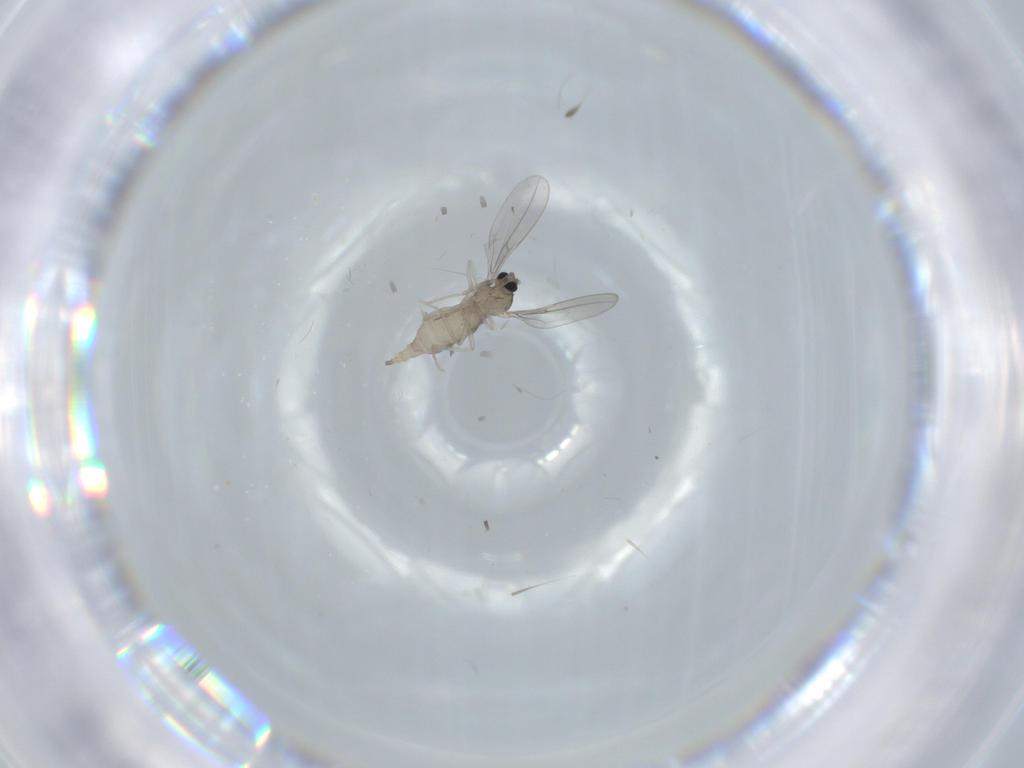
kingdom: Animalia
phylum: Arthropoda
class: Insecta
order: Diptera
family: Cecidomyiidae
